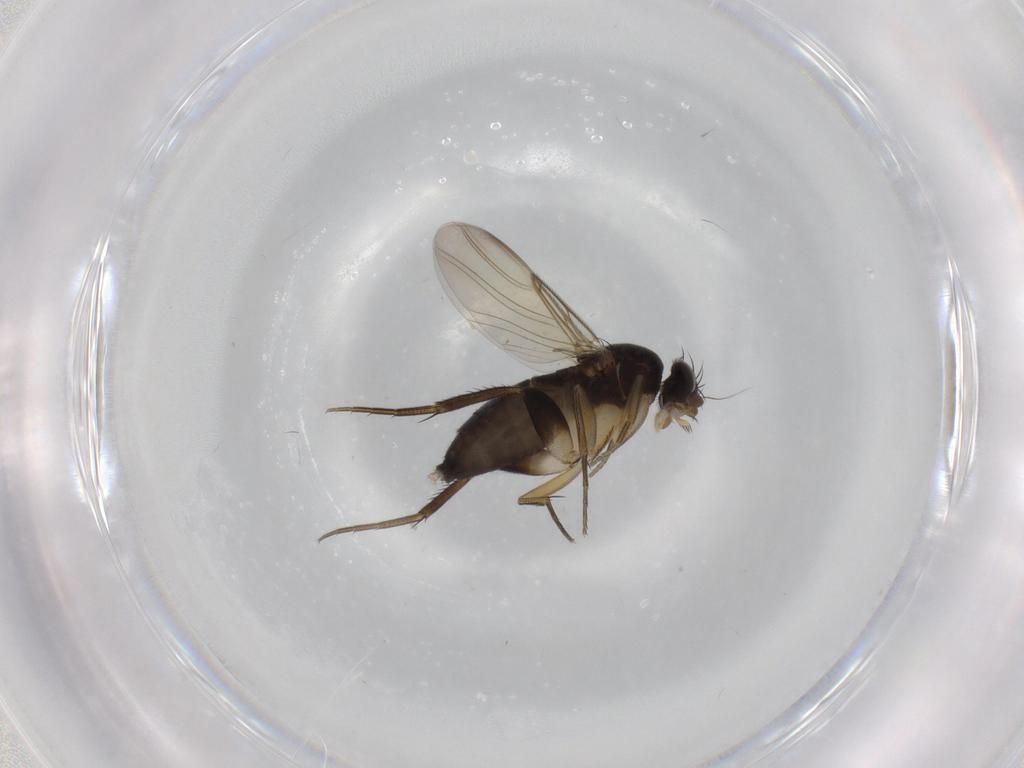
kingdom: Animalia
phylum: Arthropoda
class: Insecta
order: Diptera
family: Phoridae
